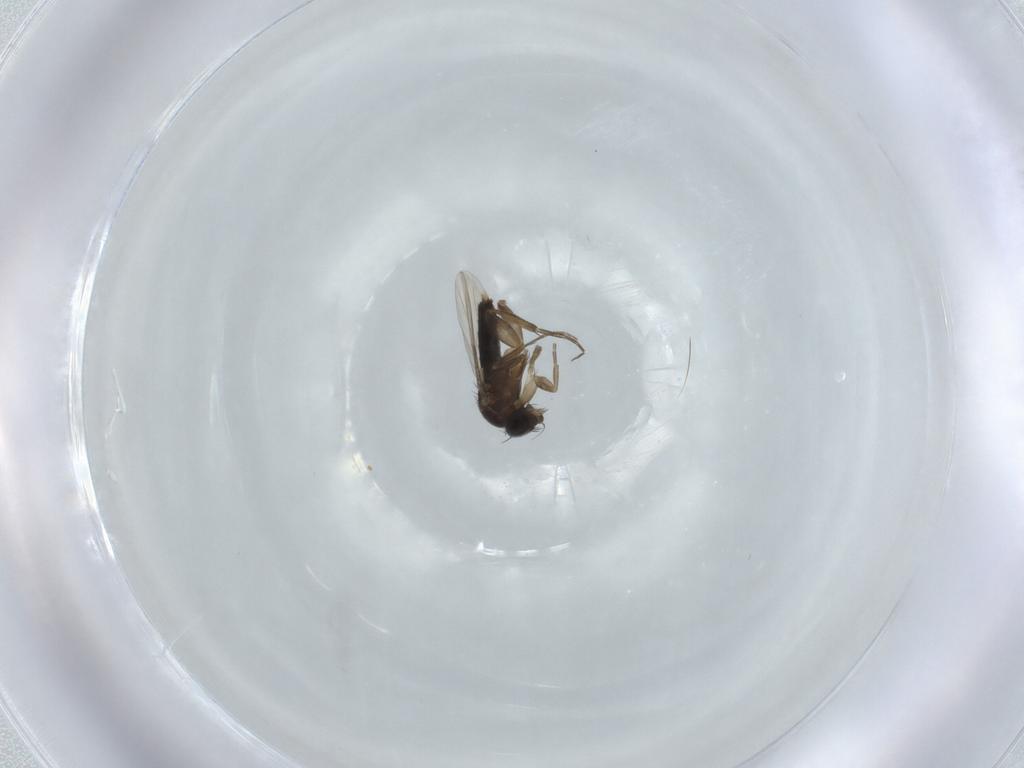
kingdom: Animalia
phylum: Arthropoda
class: Insecta
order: Diptera
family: Phoridae
